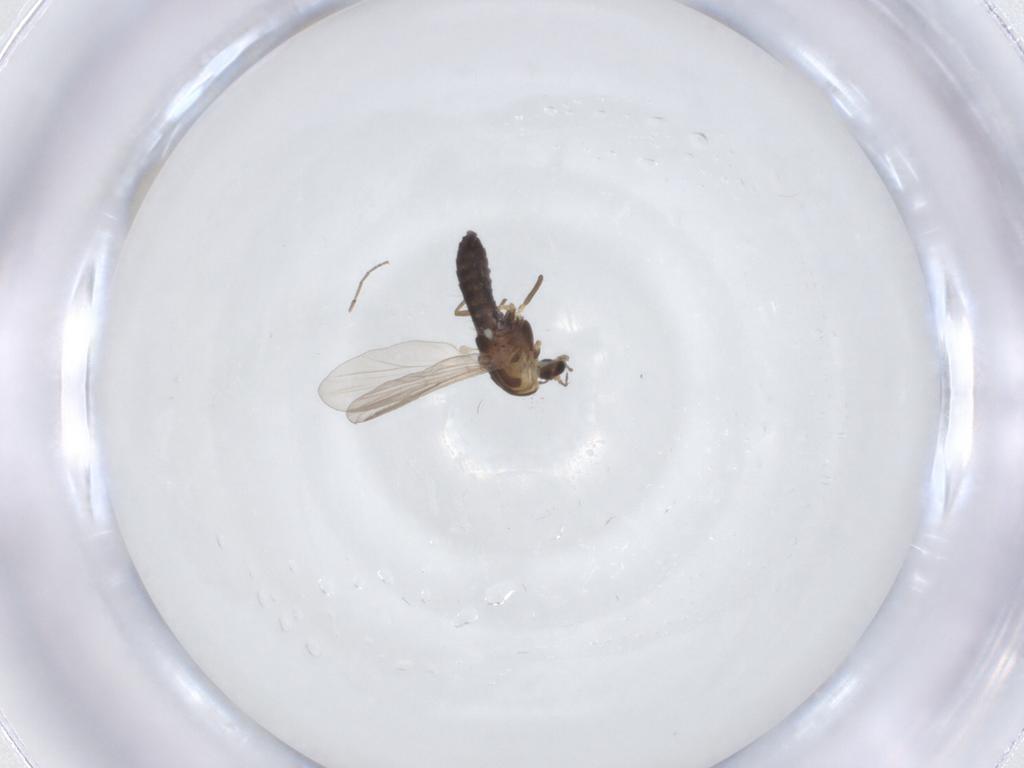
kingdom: Animalia
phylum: Arthropoda
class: Insecta
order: Diptera
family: Chironomidae
